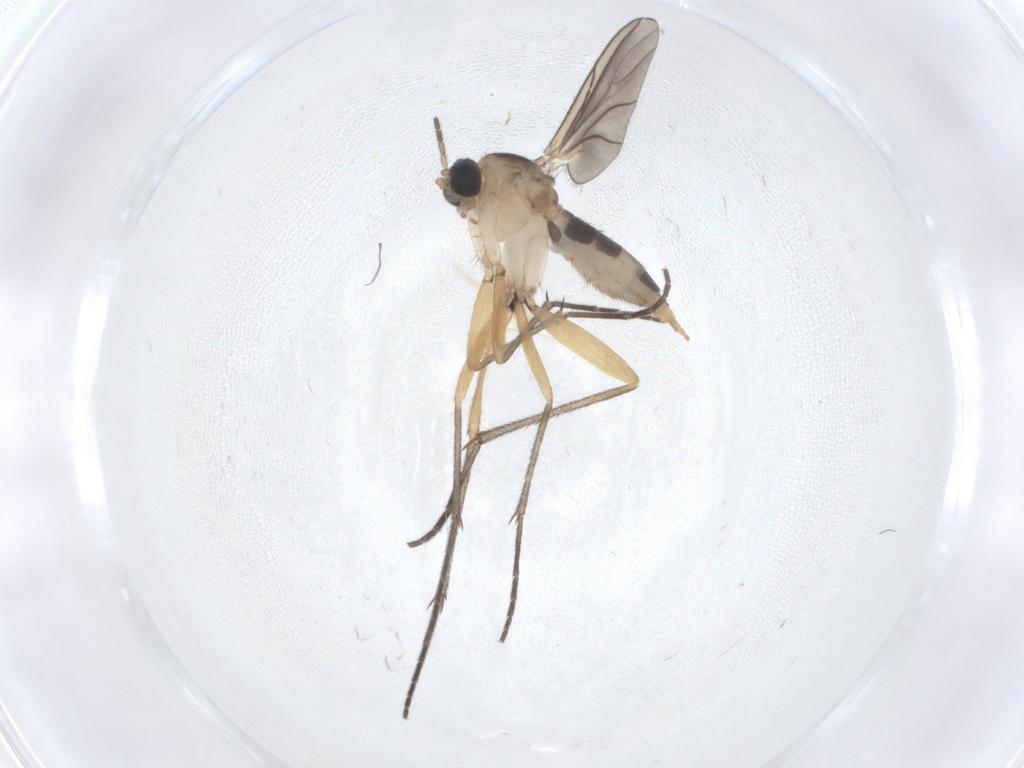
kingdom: Animalia
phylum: Arthropoda
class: Insecta
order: Diptera
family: Sciaridae
